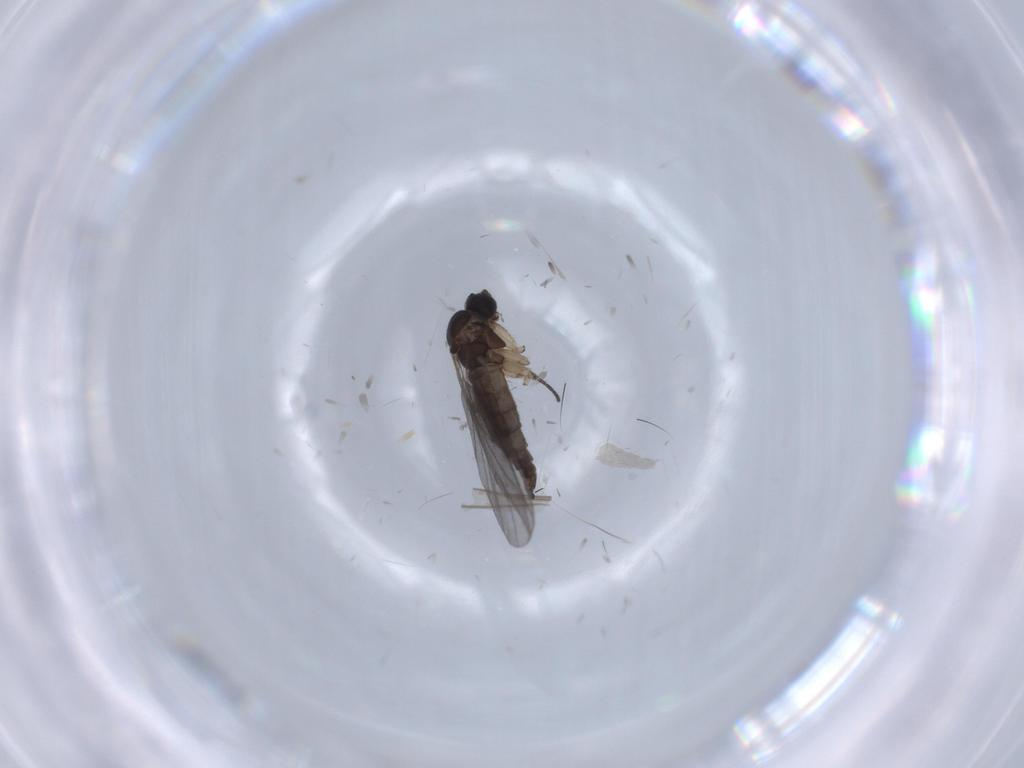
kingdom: Animalia
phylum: Arthropoda
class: Insecta
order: Diptera
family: Sciaridae
